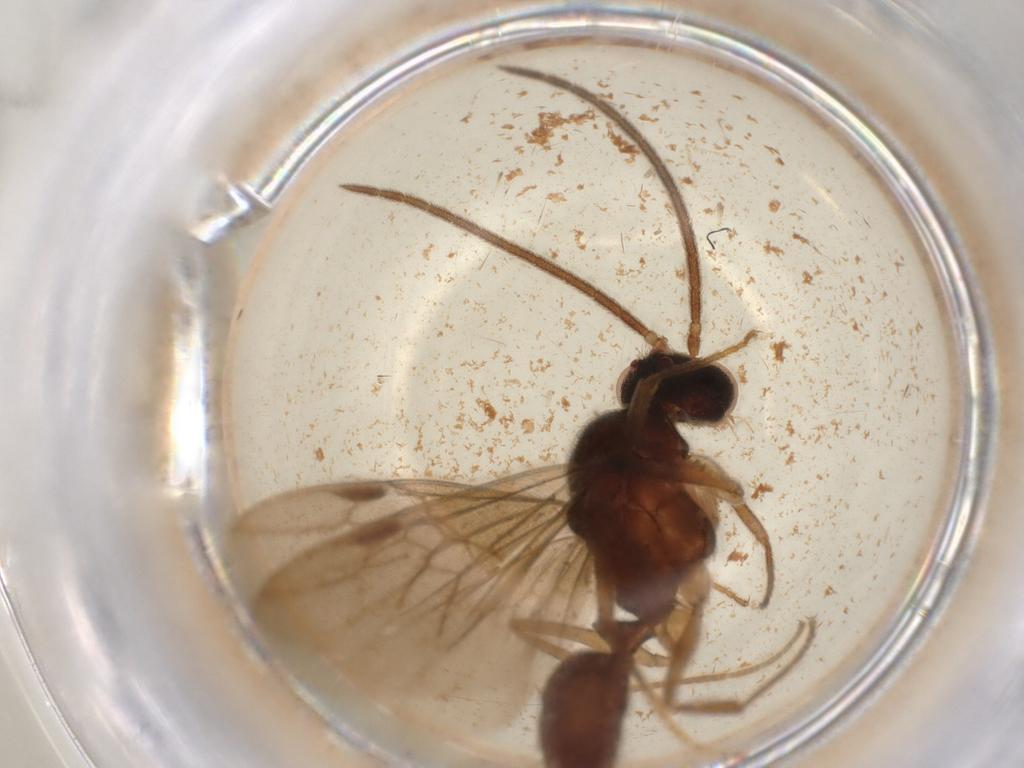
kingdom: Animalia
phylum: Arthropoda
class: Insecta
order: Hymenoptera
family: Formicidae
